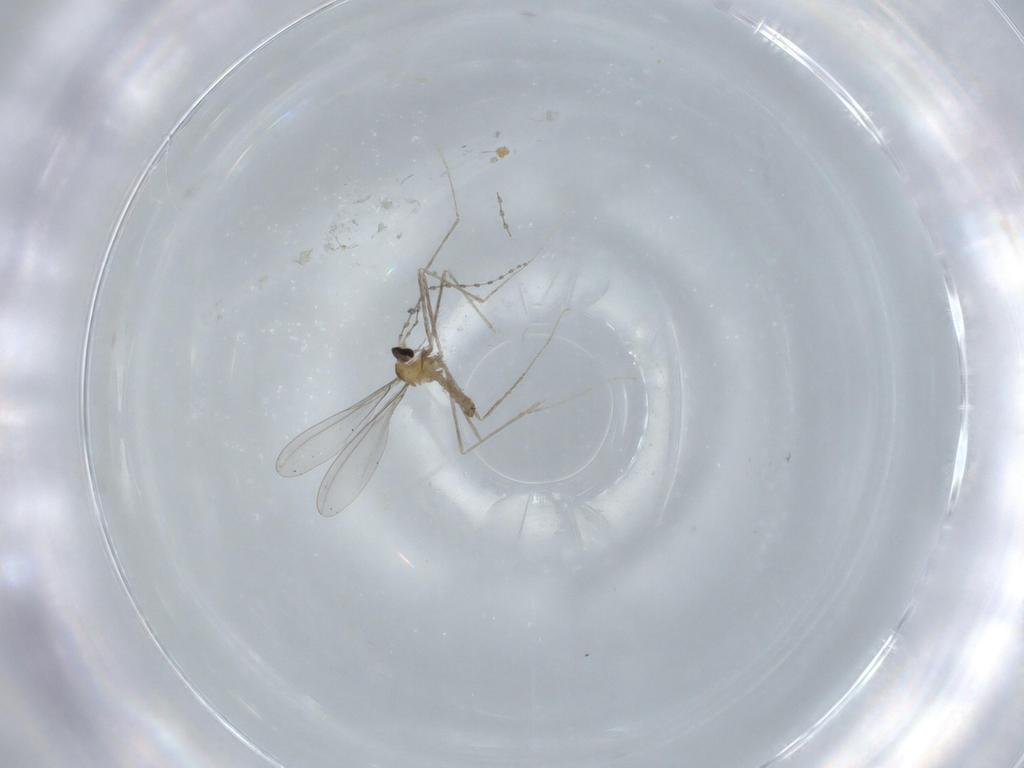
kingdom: Animalia
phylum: Arthropoda
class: Insecta
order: Diptera
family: Cecidomyiidae
